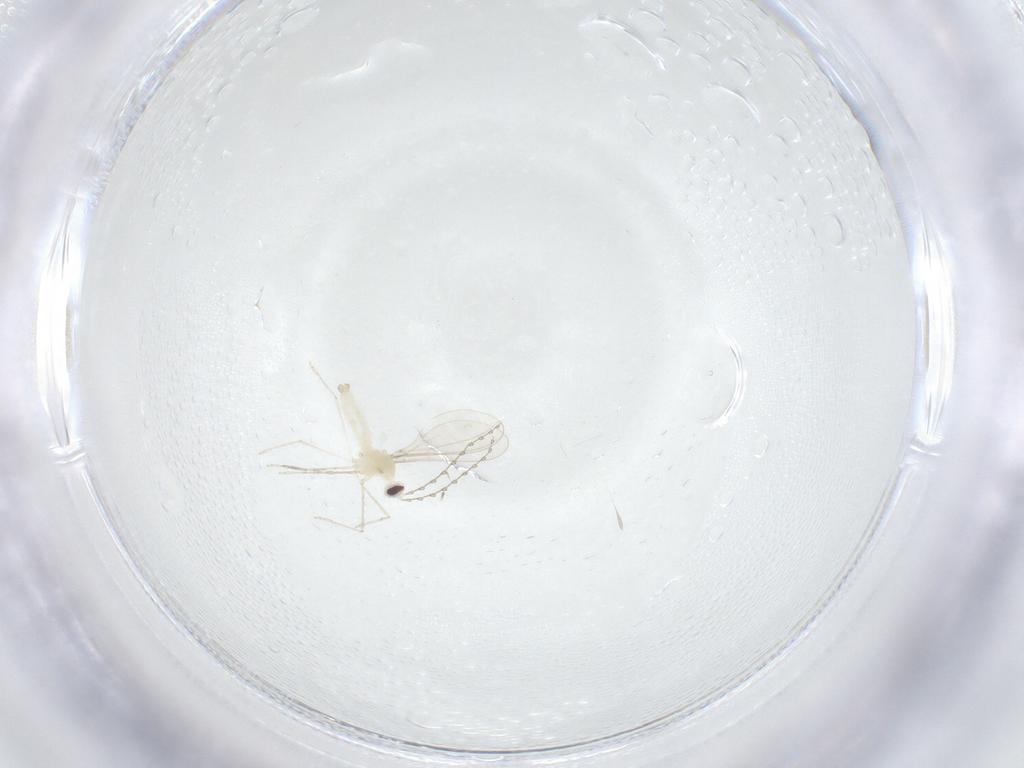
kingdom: Animalia
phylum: Arthropoda
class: Insecta
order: Diptera
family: Dolichopodidae
